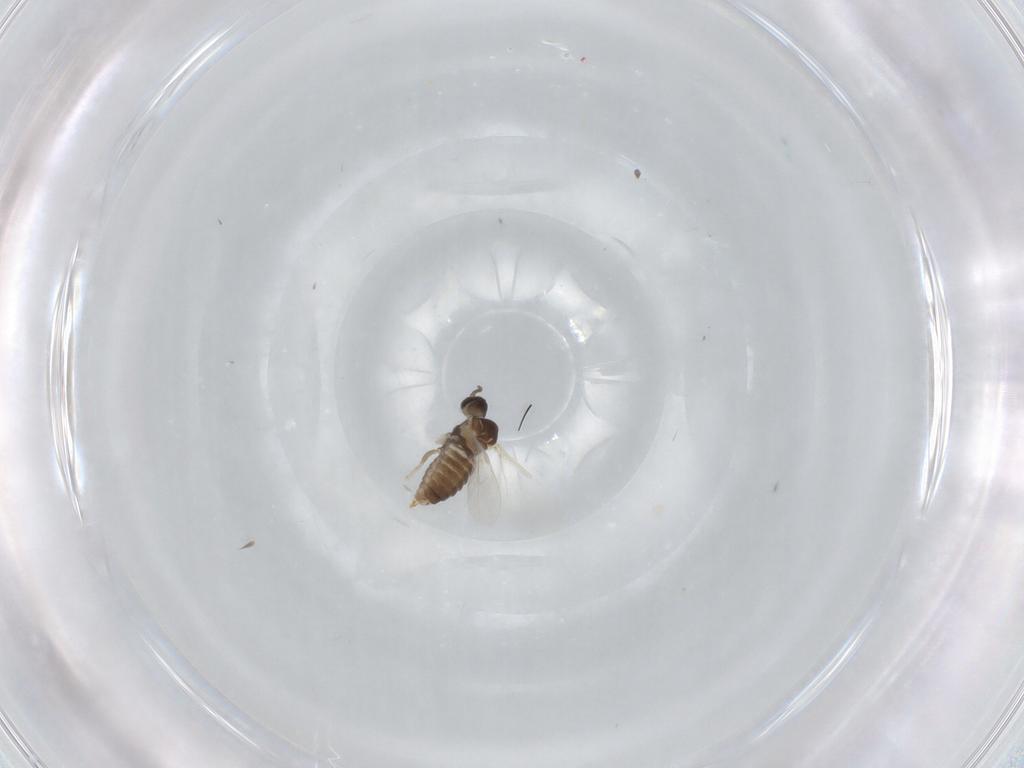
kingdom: Animalia
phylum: Arthropoda
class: Insecta
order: Diptera
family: Cecidomyiidae
